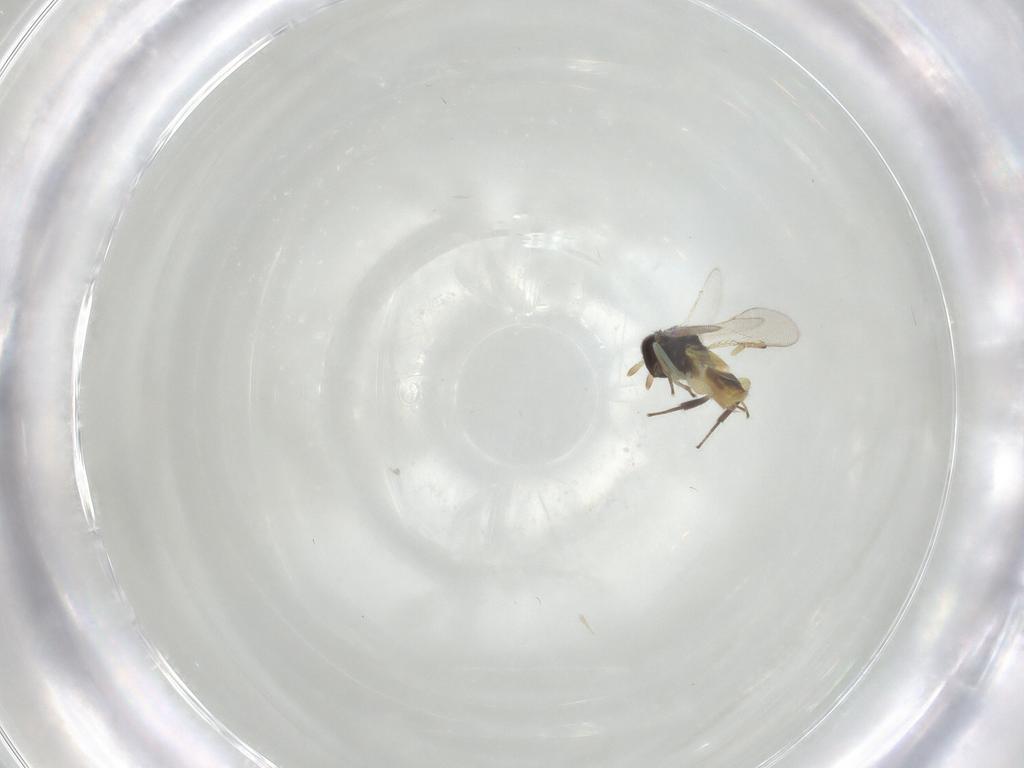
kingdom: Animalia
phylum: Arthropoda
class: Insecta
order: Hymenoptera
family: Aphelinidae
